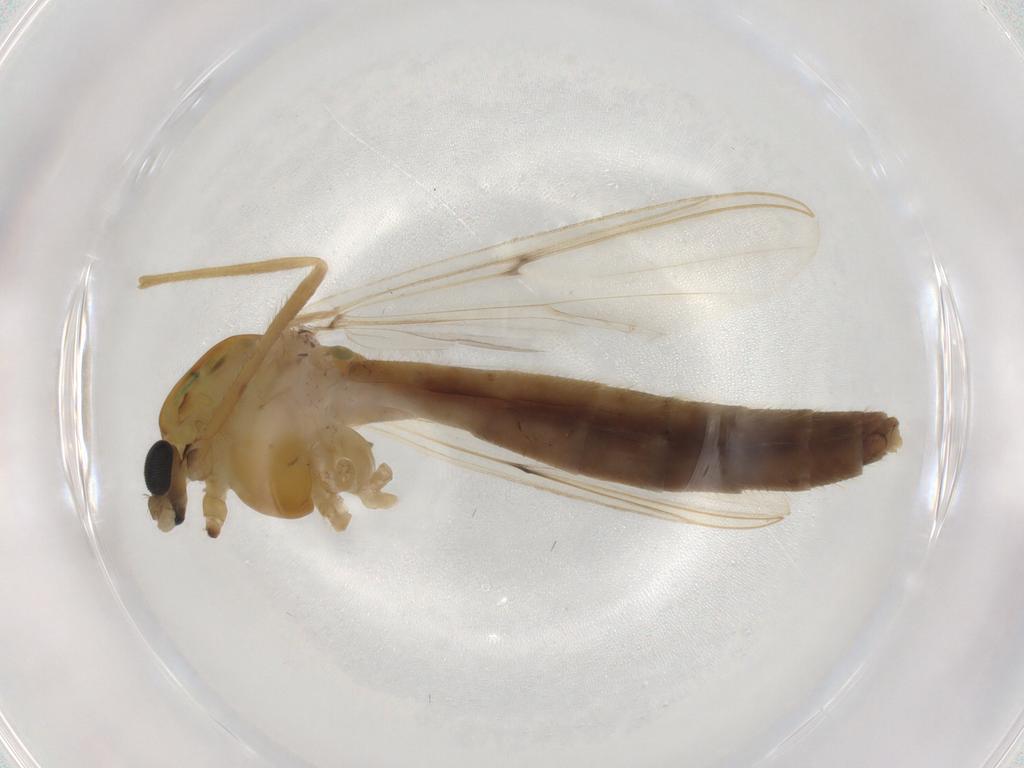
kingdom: Animalia
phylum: Arthropoda
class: Insecta
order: Diptera
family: Chironomidae
